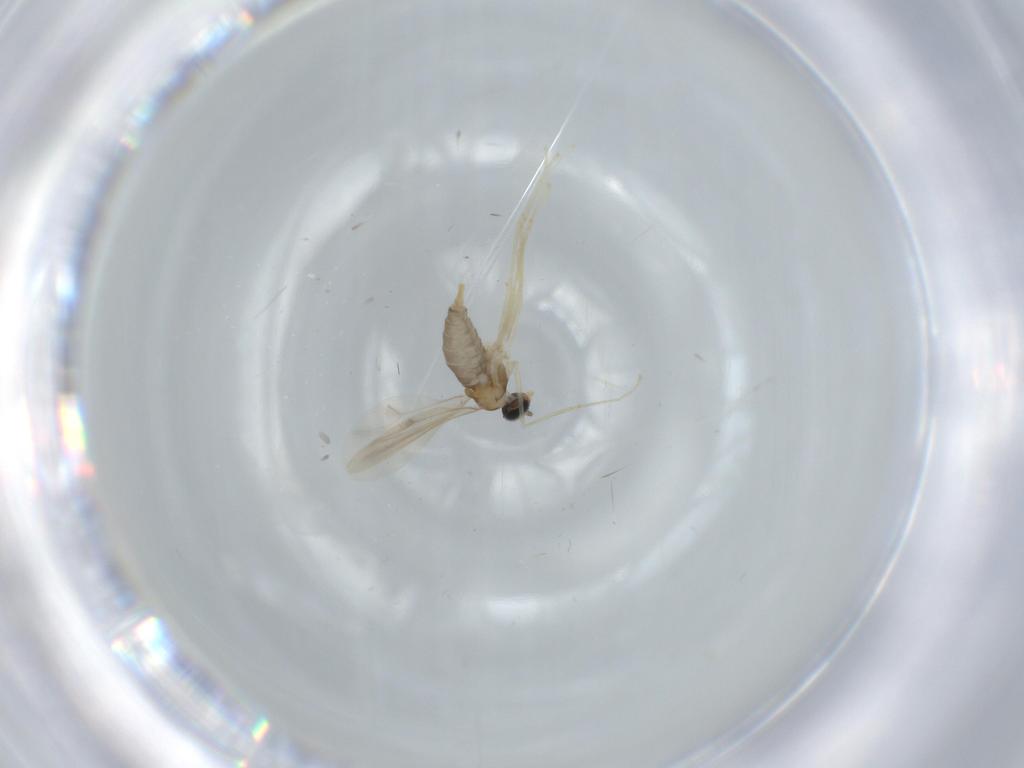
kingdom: Animalia
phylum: Arthropoda
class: Insecta
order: Diptera
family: Cecidomyiidae
